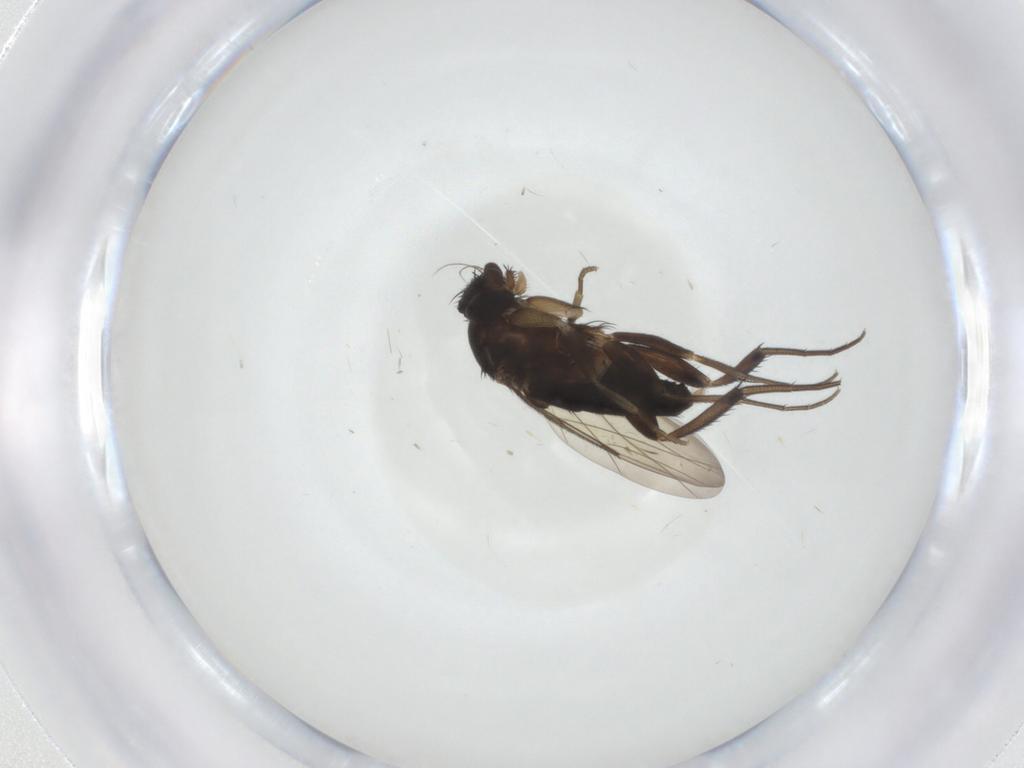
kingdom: Animalia
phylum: Arthropoda
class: Insecta
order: Diptera
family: Phoridae
